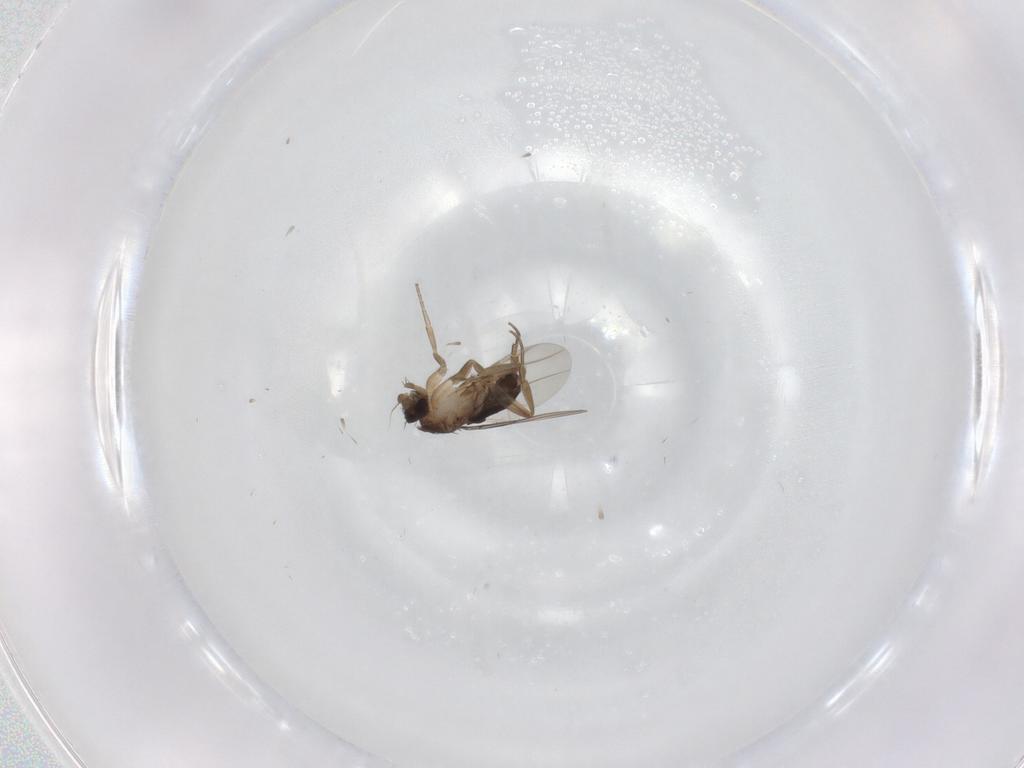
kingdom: Animalia
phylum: Arthropoda
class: Insecta
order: Diptera
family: Phoridae
